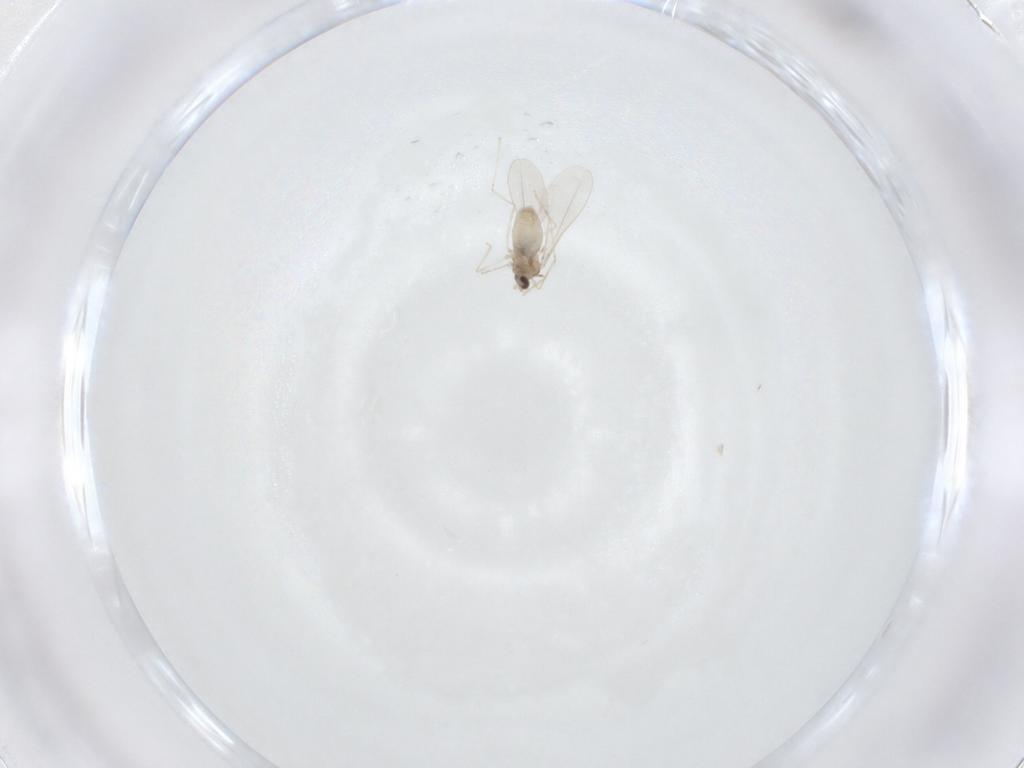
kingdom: Animalia
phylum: Arthropoda
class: Insecta
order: Diptera
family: Cecidomyiidae
